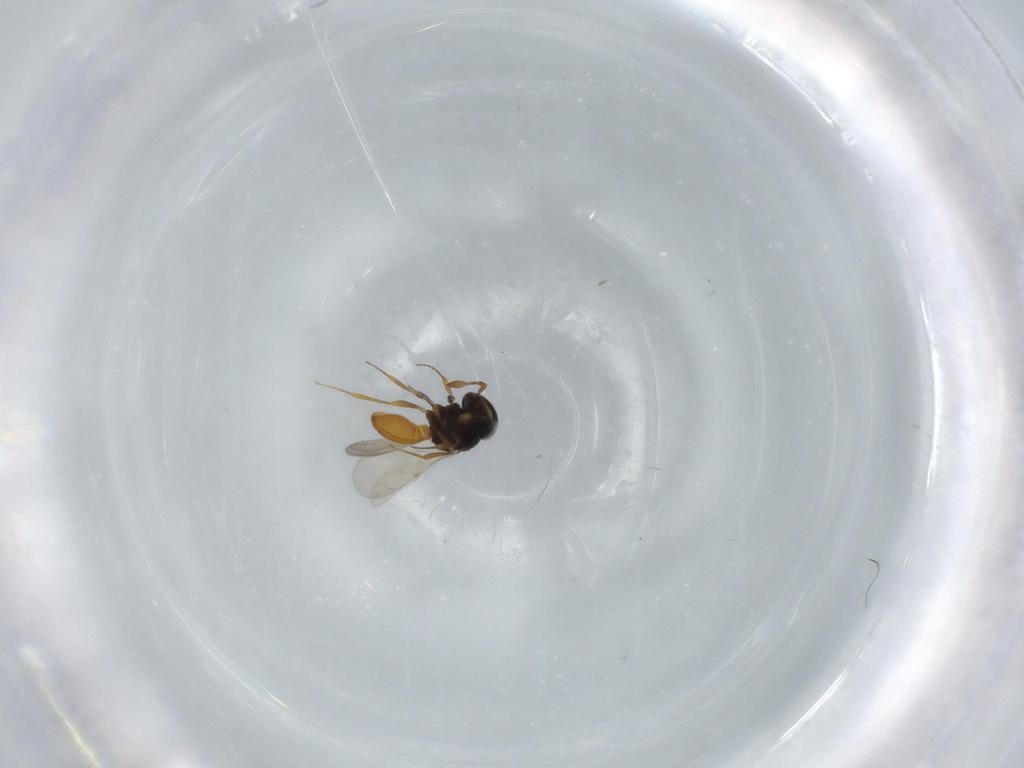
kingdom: Animalia
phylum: Arthropoda
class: Insecta
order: Hymenoptera
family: Scelionidae
